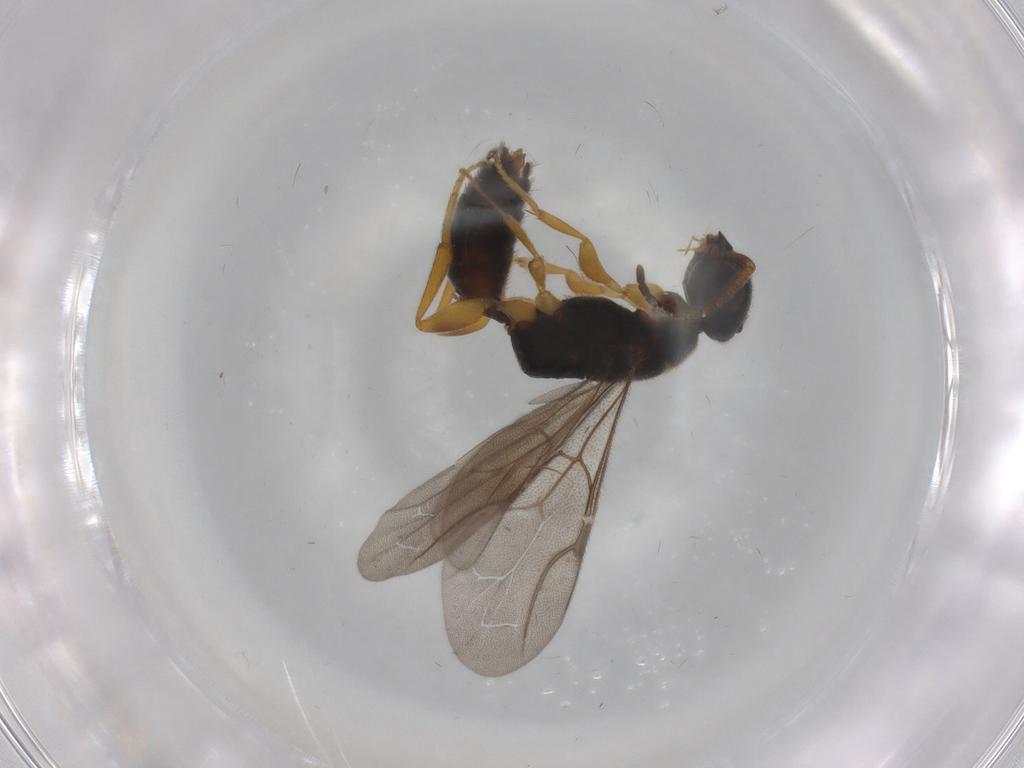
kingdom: Animalia
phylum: Arthropoda
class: Insecta
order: Hymenoptera
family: Bethylidae
